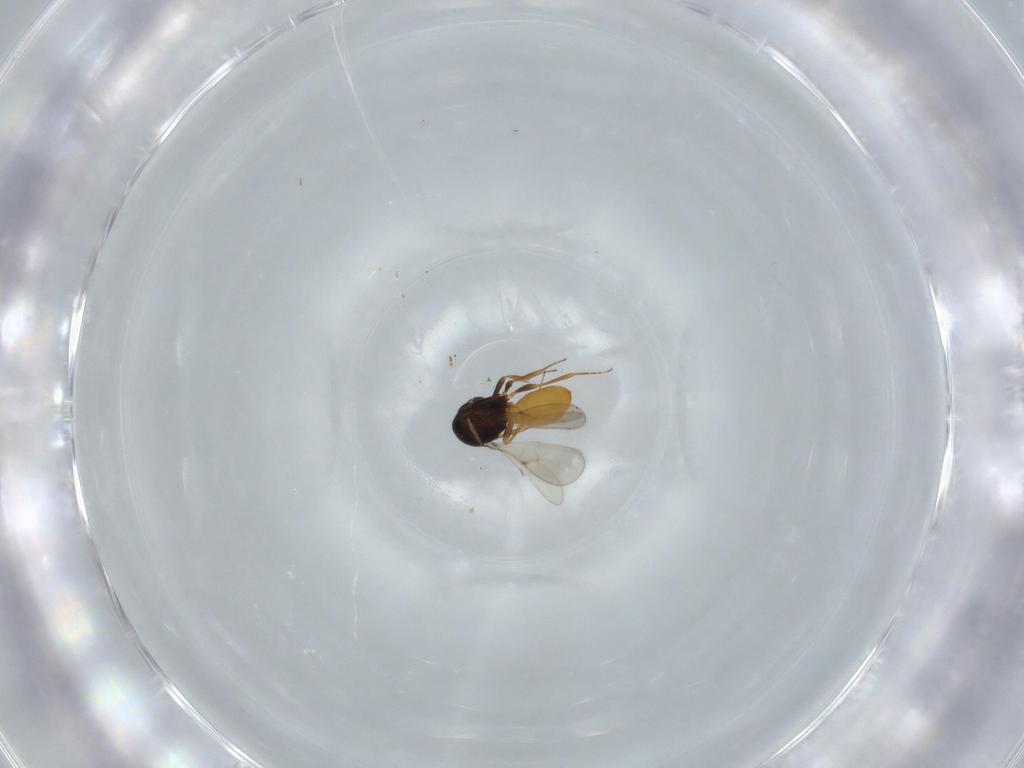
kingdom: Animalia
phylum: Arthropoda
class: Insecta
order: Hymenoptera
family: Scelionidae
